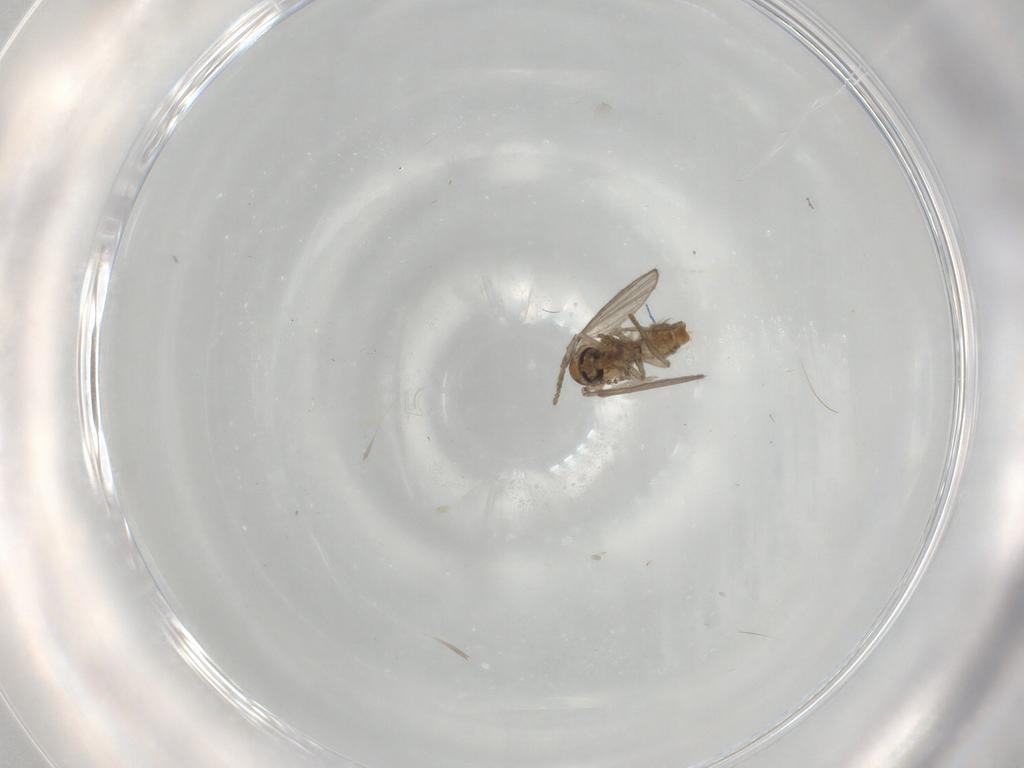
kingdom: Animalia
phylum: Arthropoda
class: Insecta
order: Diptera
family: Psychodidae
